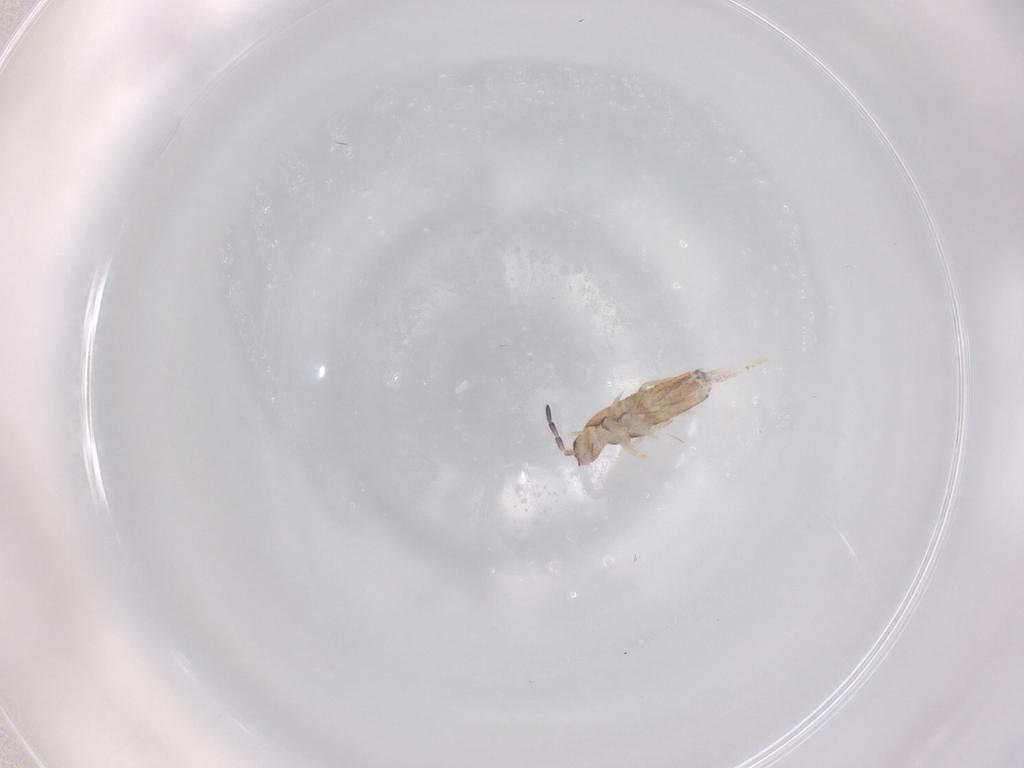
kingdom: Animalia
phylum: Arthropoda
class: Collembola
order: Entomobryomorpha
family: Entomobryidae
